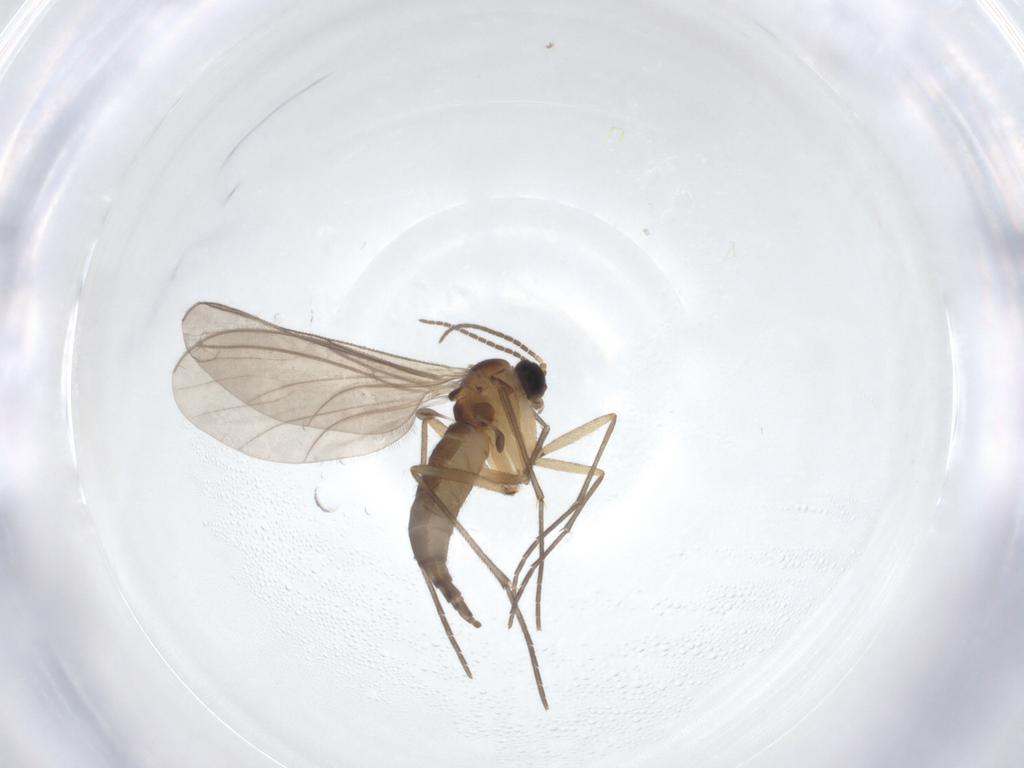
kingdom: Animalia
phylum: Arthropoda
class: Insecta
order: Diptera
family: Sciaridae
